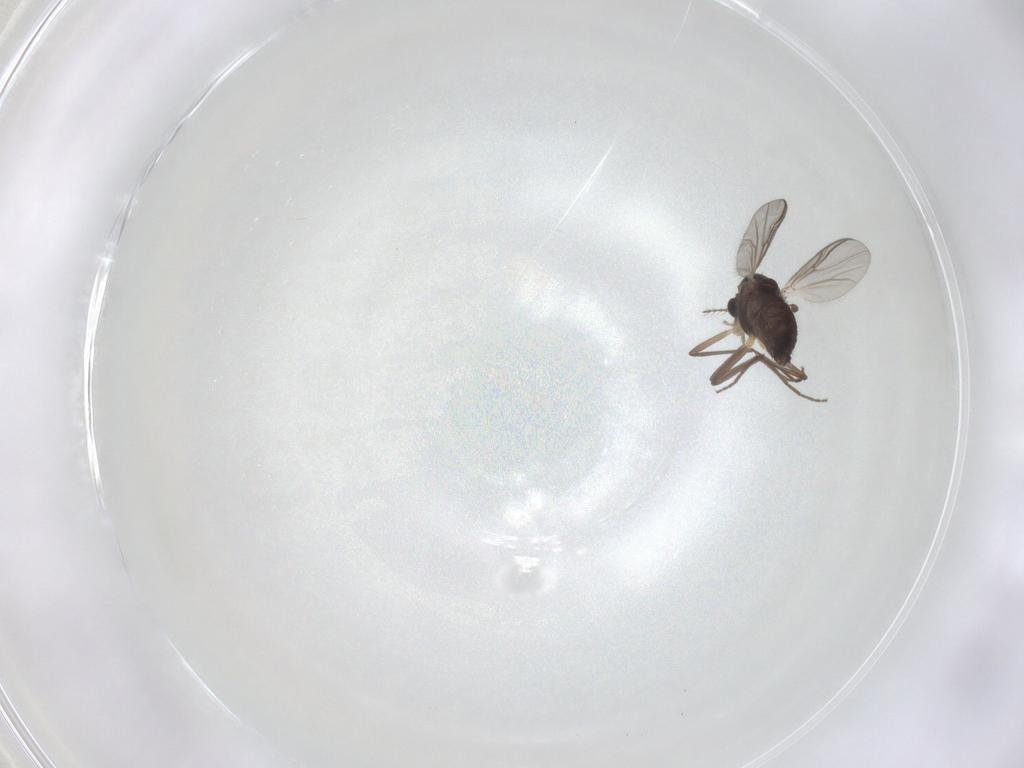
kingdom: Animalia
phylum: Arthropoda
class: Insecta
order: Diptera
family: Chironomidae
